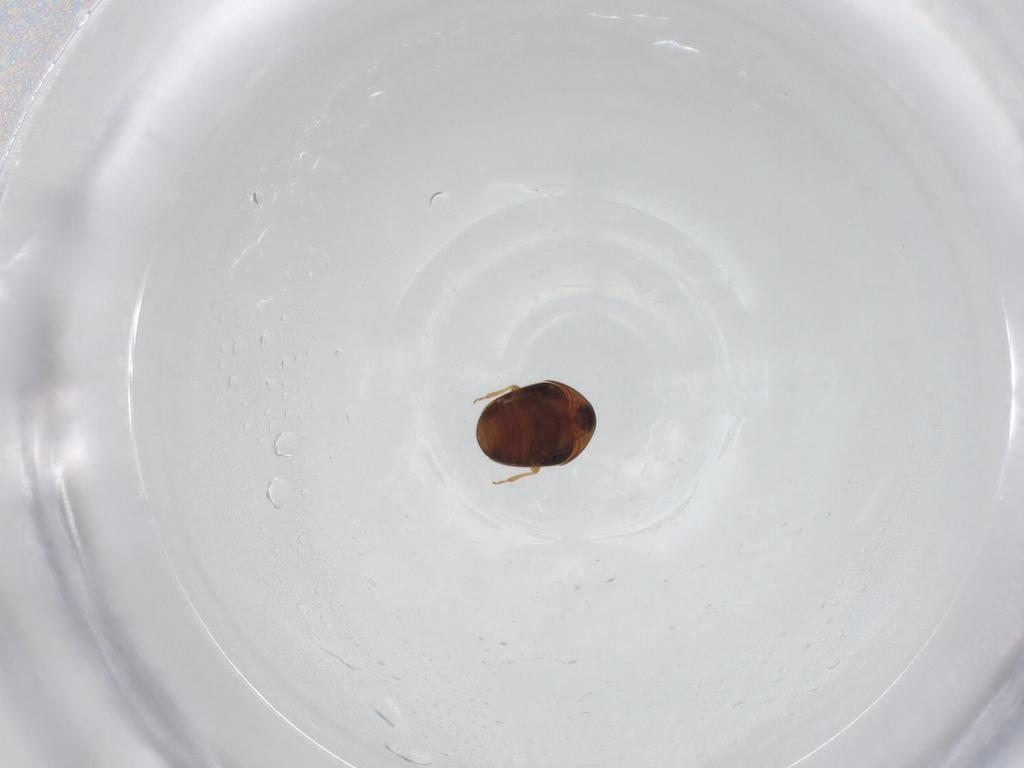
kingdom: Animalia
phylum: Arthropoda
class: Insecta
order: Coleoptera
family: Corylophidae
